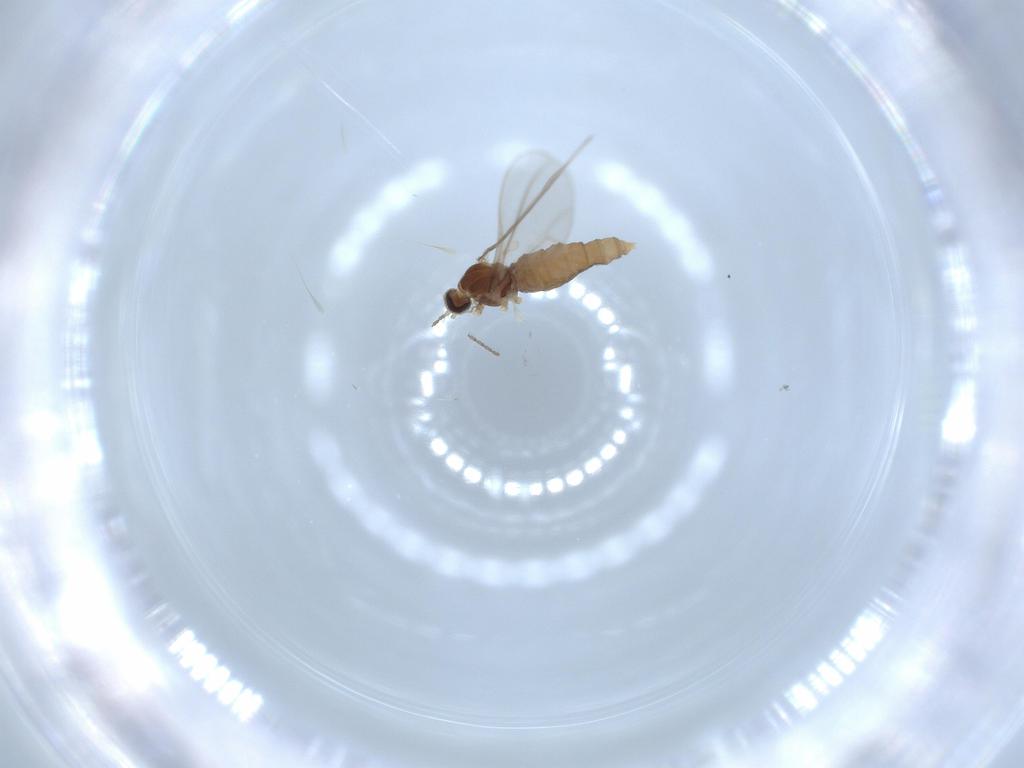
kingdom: Animalia
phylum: Arthropoda
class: Insecta
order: Diptera
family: Cecidomyiidae
